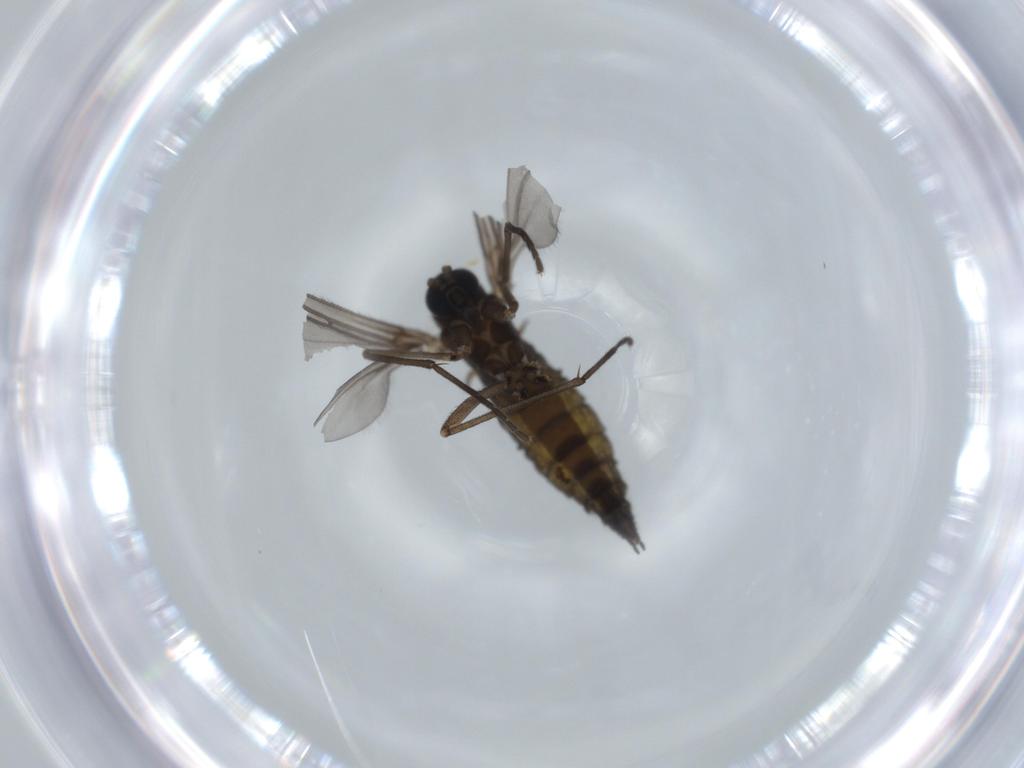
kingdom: Animalia
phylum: Arthropoda
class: Insecta
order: Diptera
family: Sciaridae
